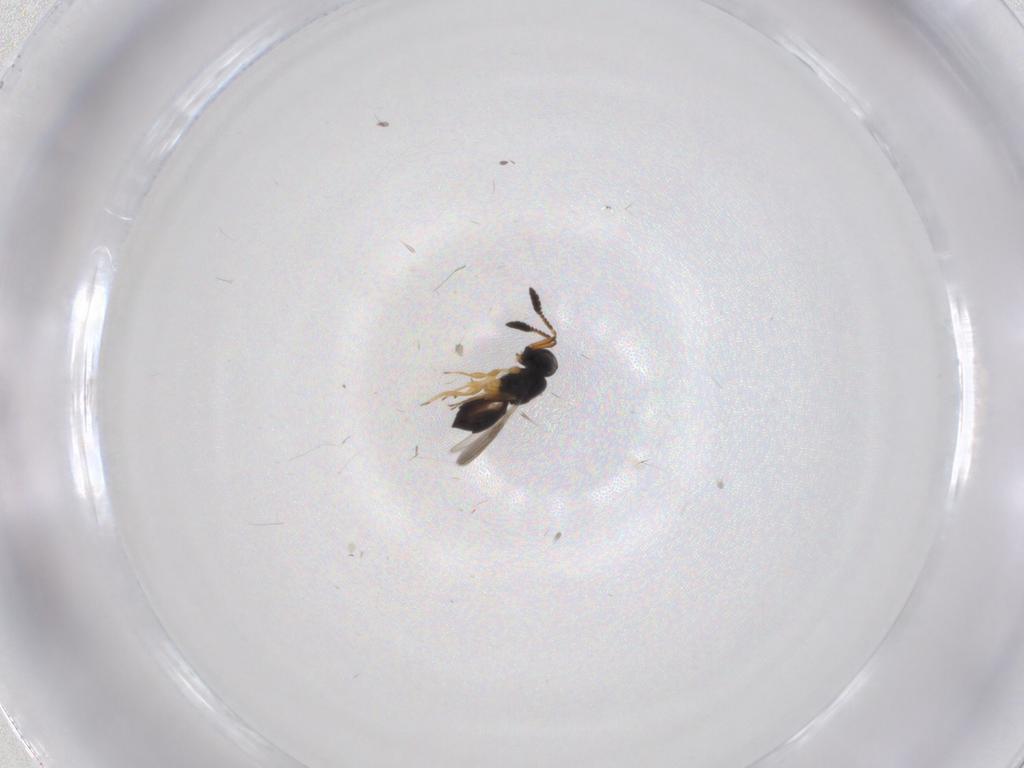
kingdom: Animalia
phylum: Arthropoda
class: Insecta
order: Hymenoptera
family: Scelionidae
